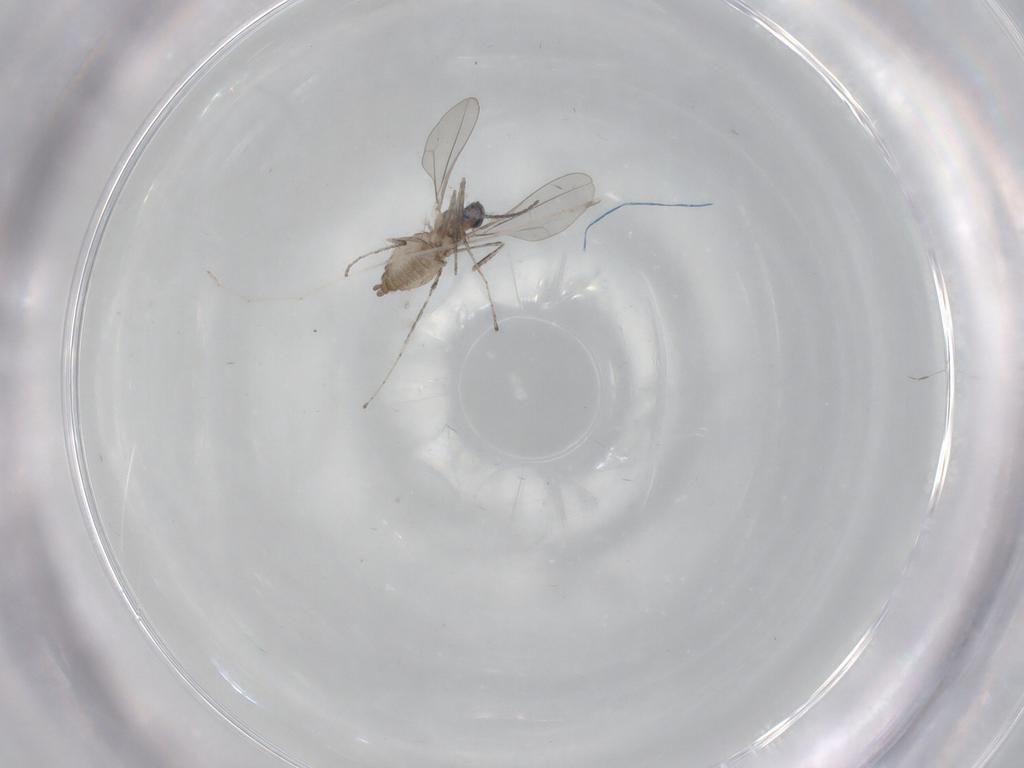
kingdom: Animalia
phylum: Arthropoda
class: Insecta
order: Diptera
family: Cecidomyiidae
